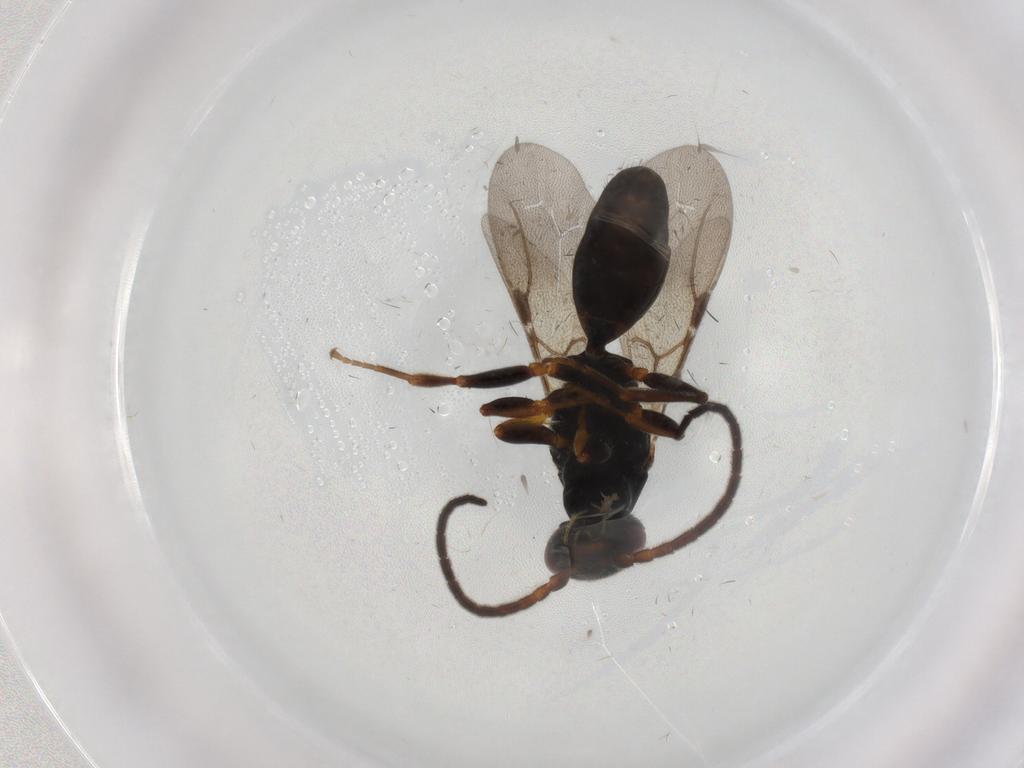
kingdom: Animalia
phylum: Arthropoda
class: Insecta
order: Hymenoptera
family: Bethylidae
